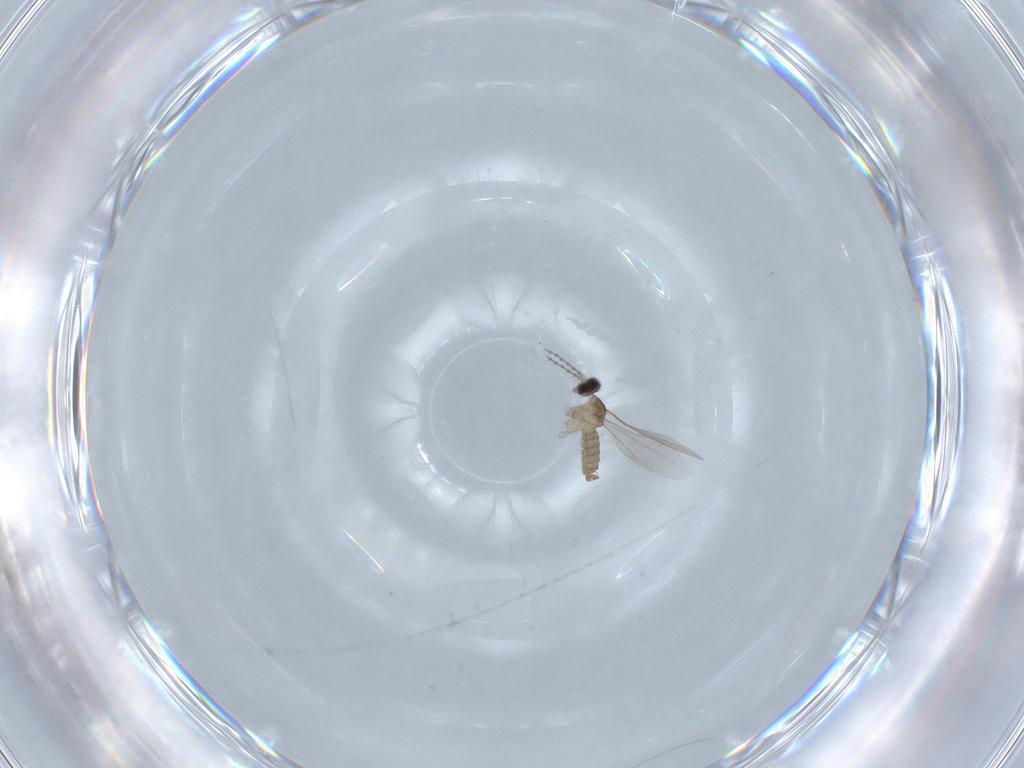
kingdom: Animalia
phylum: Arthropoda
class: Insecta
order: Diptera
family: Cecidomyiidae
